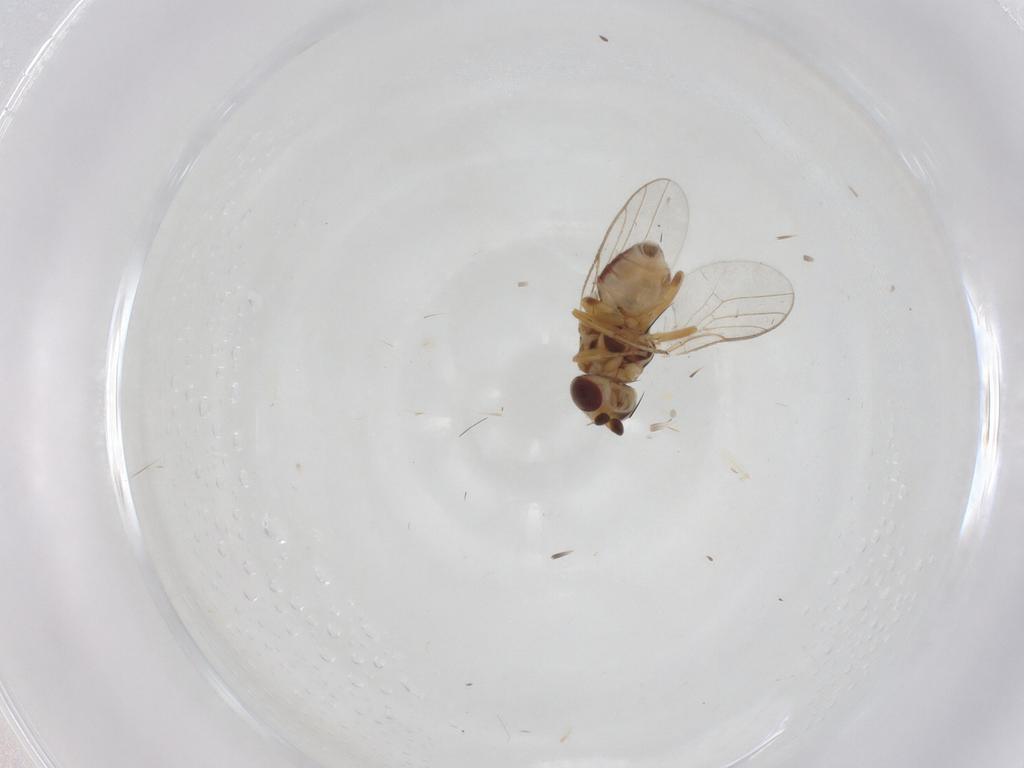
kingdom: Animalia
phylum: Arthropoda
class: Insecta
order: Diptera
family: Chloropidae
